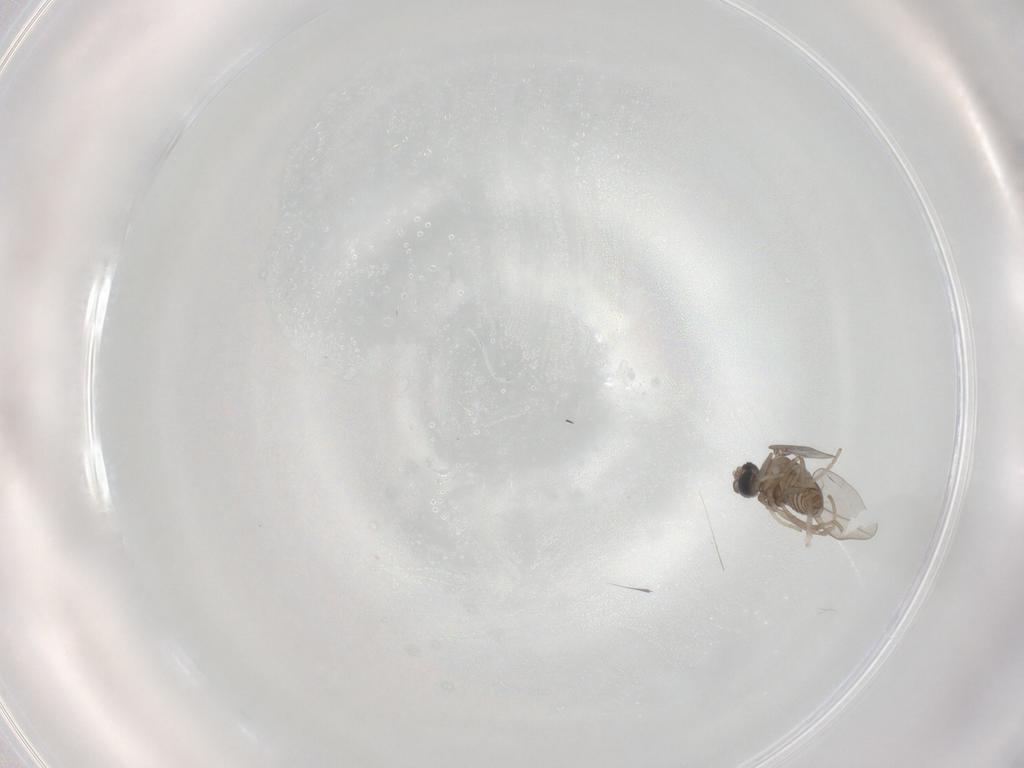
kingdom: Animalia
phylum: Arthropoda
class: Insecta
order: Diptera
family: Sciaridae
